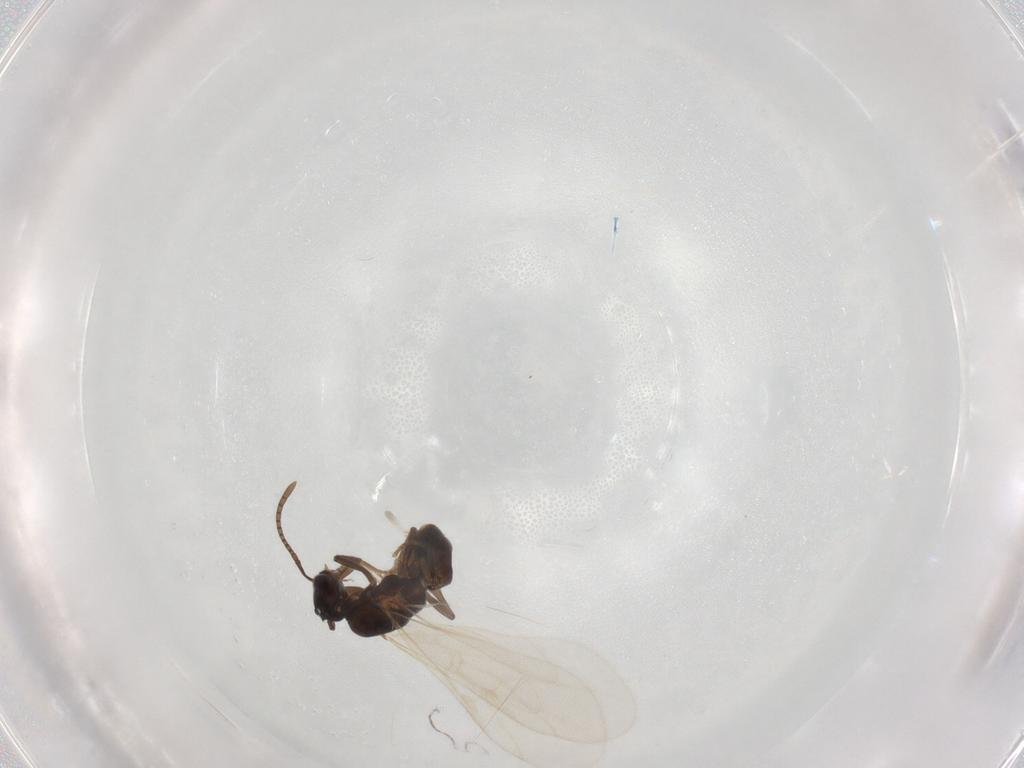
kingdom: Animalia
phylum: Arthropoda
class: Insecta
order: Hymenoptera
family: Formicidae
